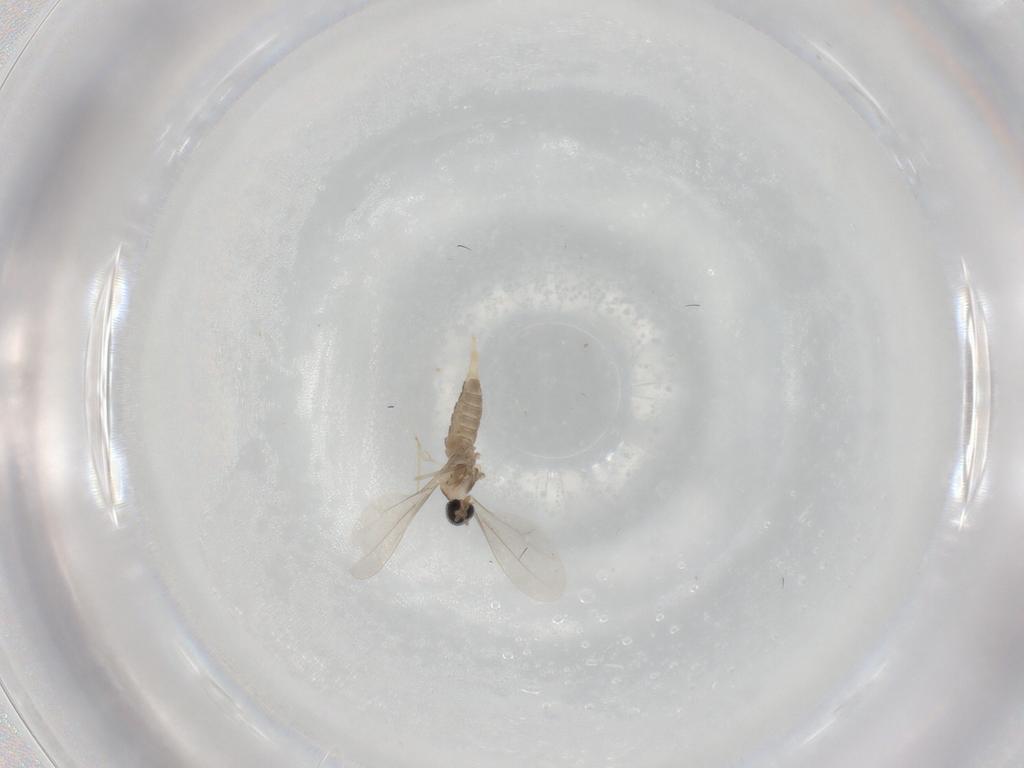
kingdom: Animalia
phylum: Arthropoda
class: Insecta
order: Diptera
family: Cecidomyiidae
